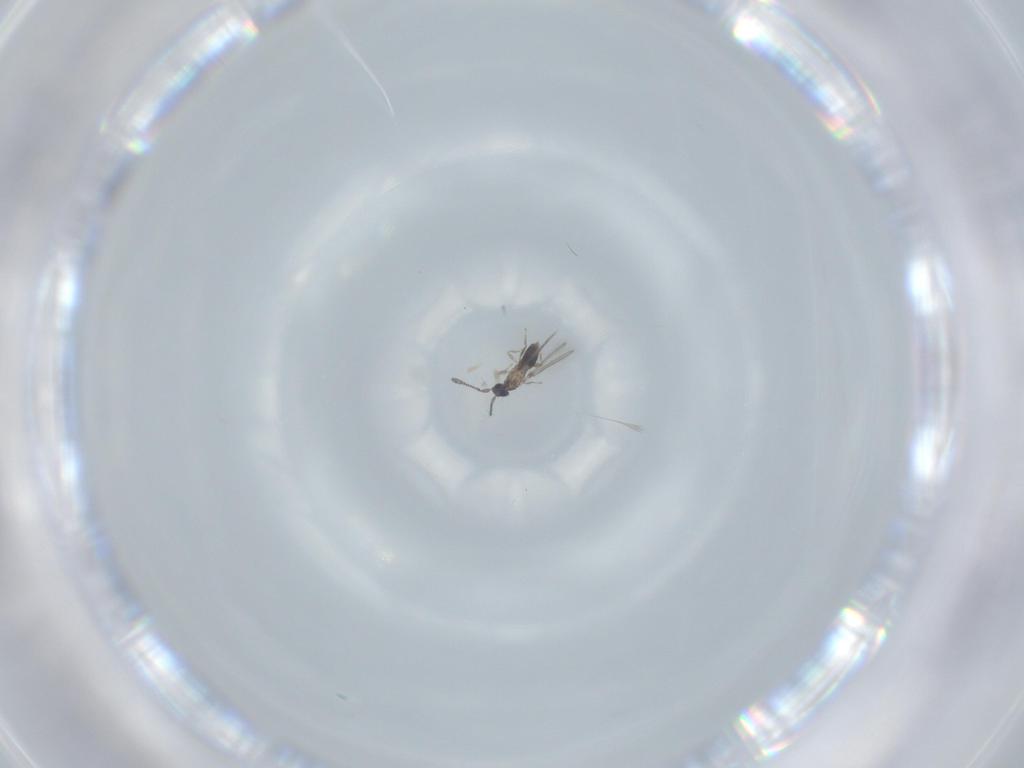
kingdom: Animalia
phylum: Arthropoda
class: Insecta
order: Hymenoptera
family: Mymaridae
